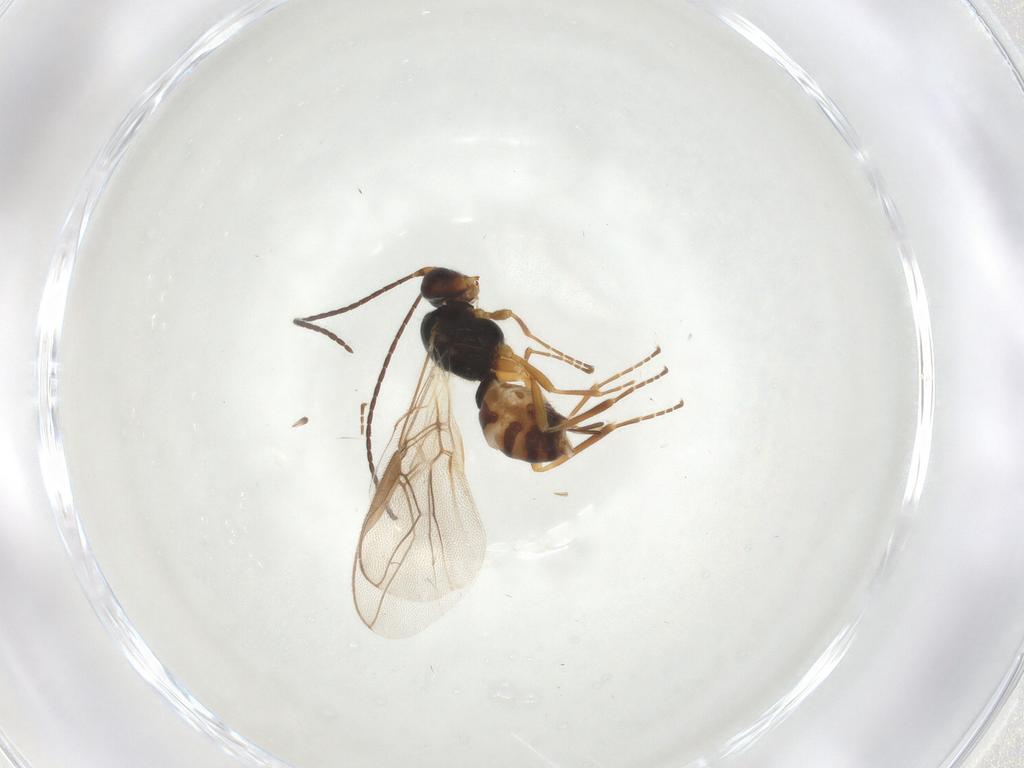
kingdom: Animalia
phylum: Arthropoda
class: Insecta
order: Hymenoptera
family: Braconidae
